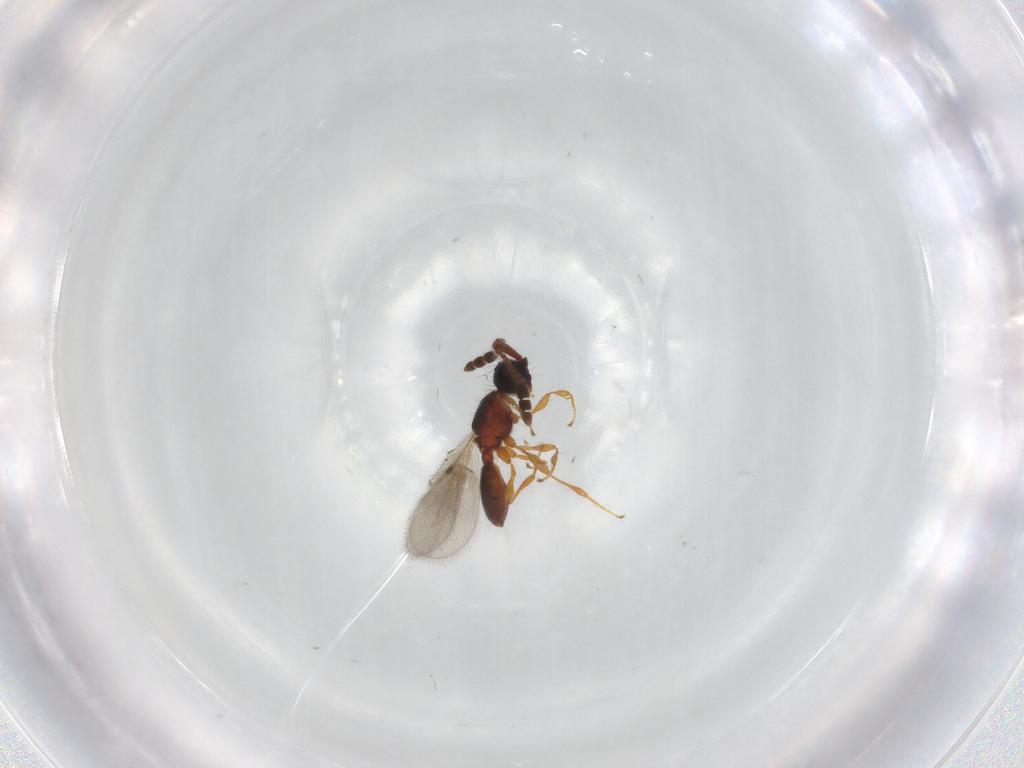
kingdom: Animalia
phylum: Arthropoda
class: Insecta
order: Hymenoptera
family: Diapriidae
